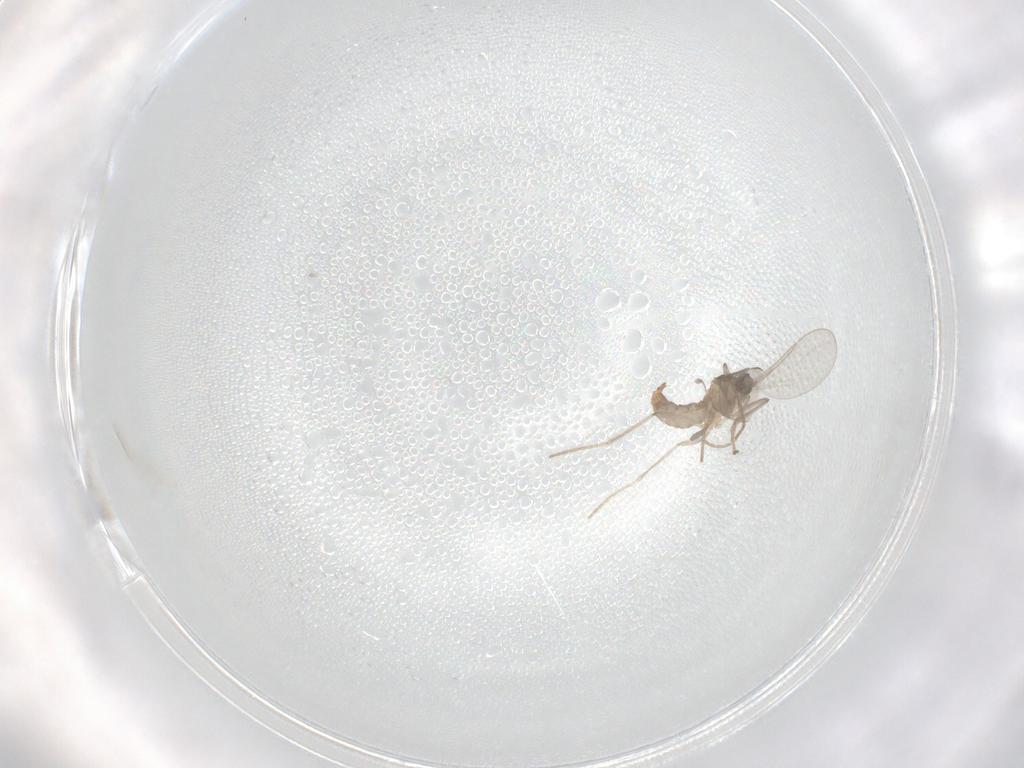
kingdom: Animalia
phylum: Arthropoda
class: Insecta
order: Diptera
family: Cecidomyiidae
